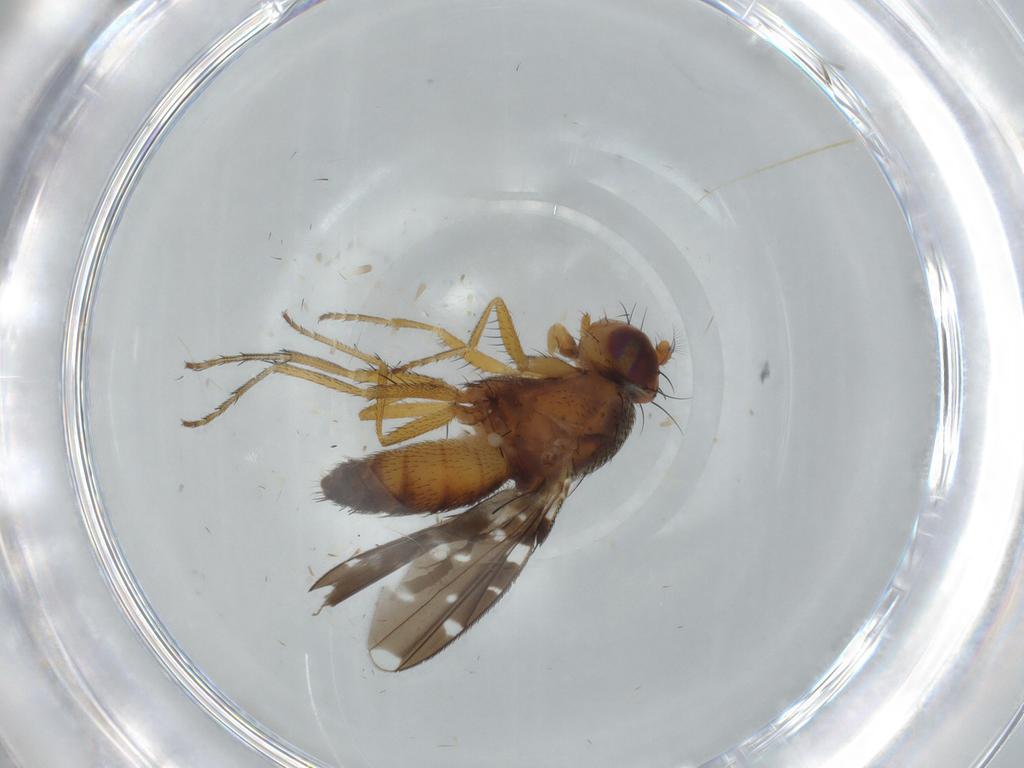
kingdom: Animalia
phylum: Arthropoda
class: Insecta
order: Diptera
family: Ephydridae
